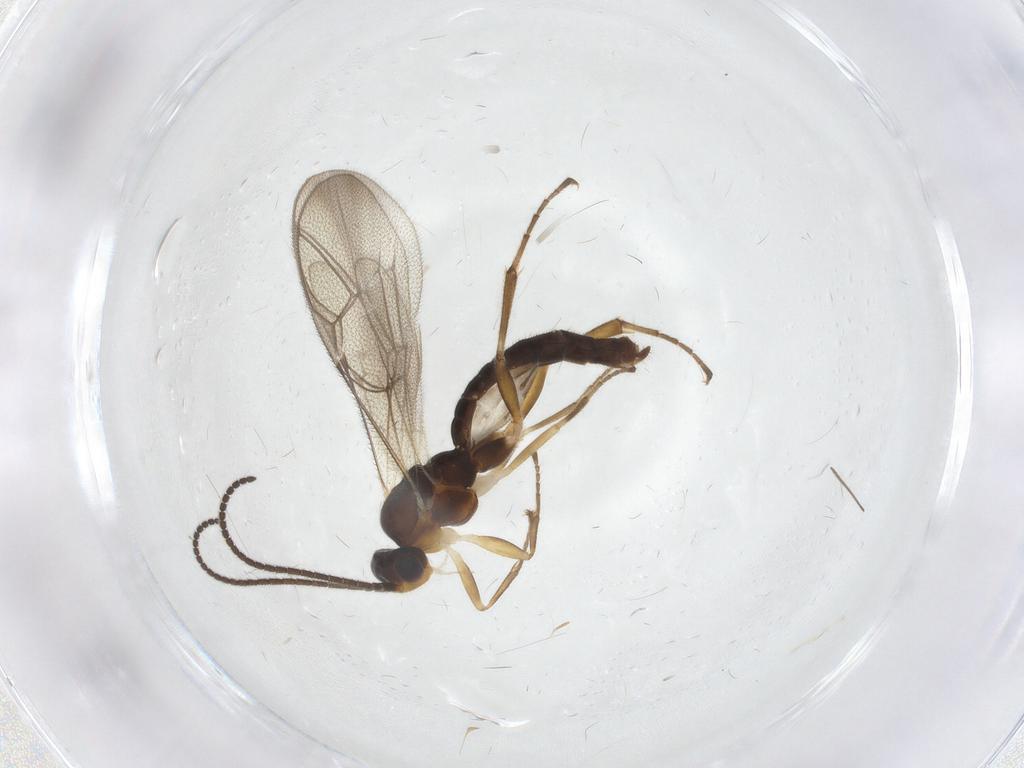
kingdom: Animalia
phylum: Arthropoda
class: Insecta
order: Hymenoptera
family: Ichneumonidae
